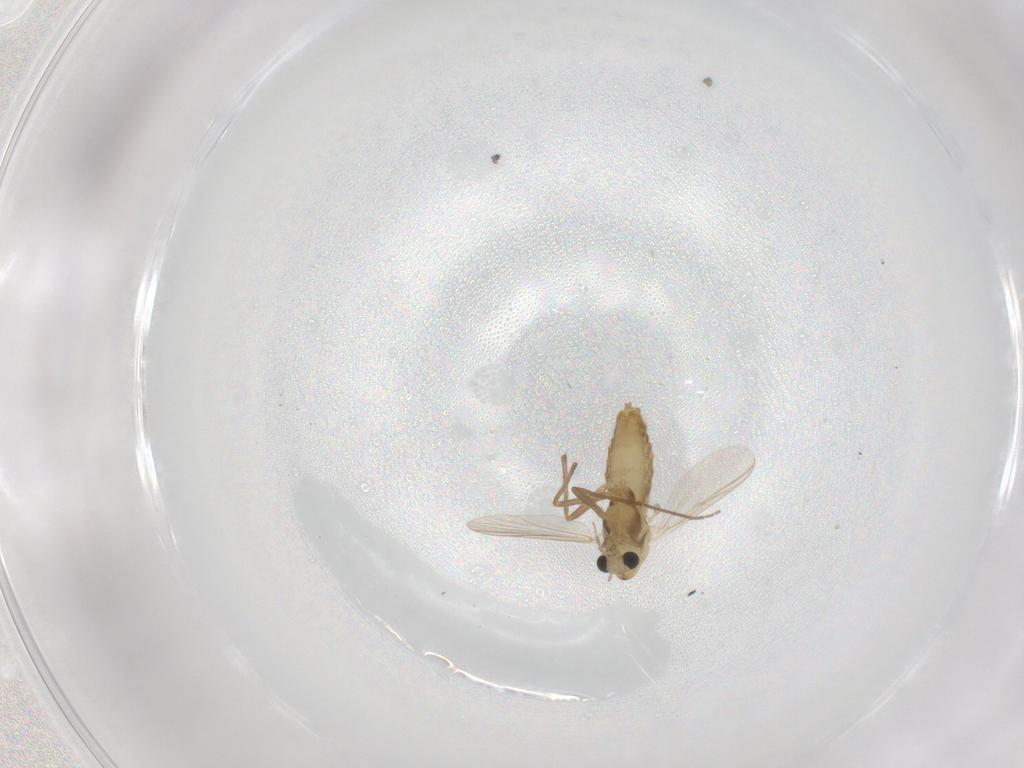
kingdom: Animalia
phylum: Arthropoda
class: Insecta
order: Diptera
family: Chironomidae
